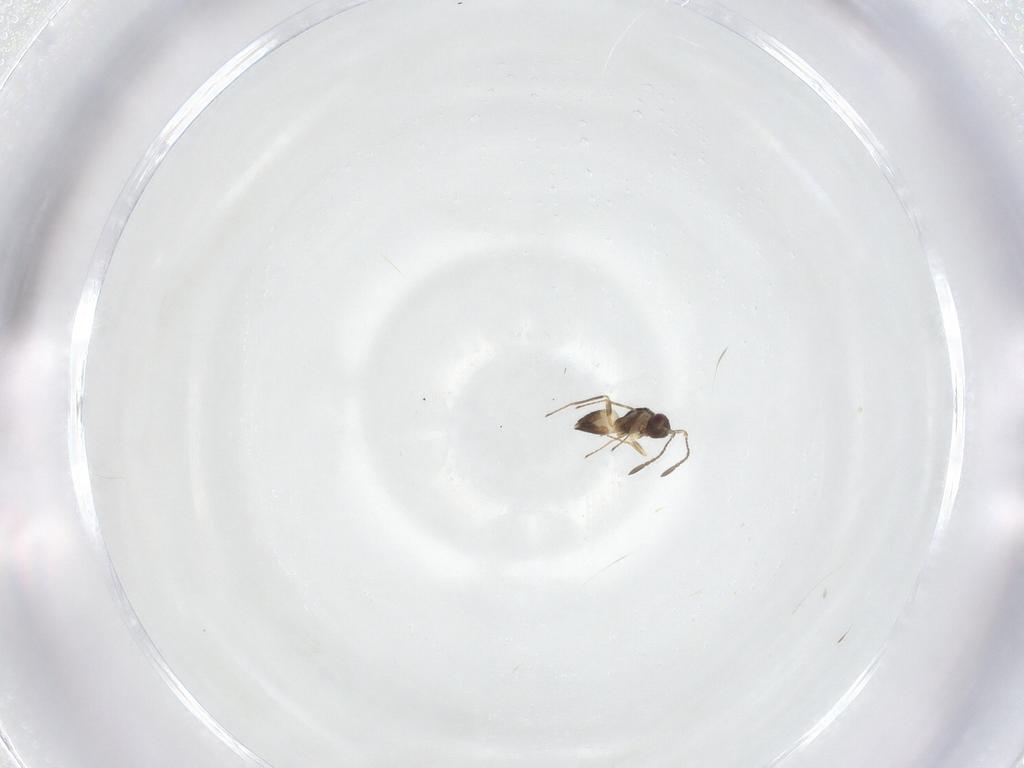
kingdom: Animalia
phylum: Arthropoda
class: Insecta
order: Hymenoptera
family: Mymaridae
